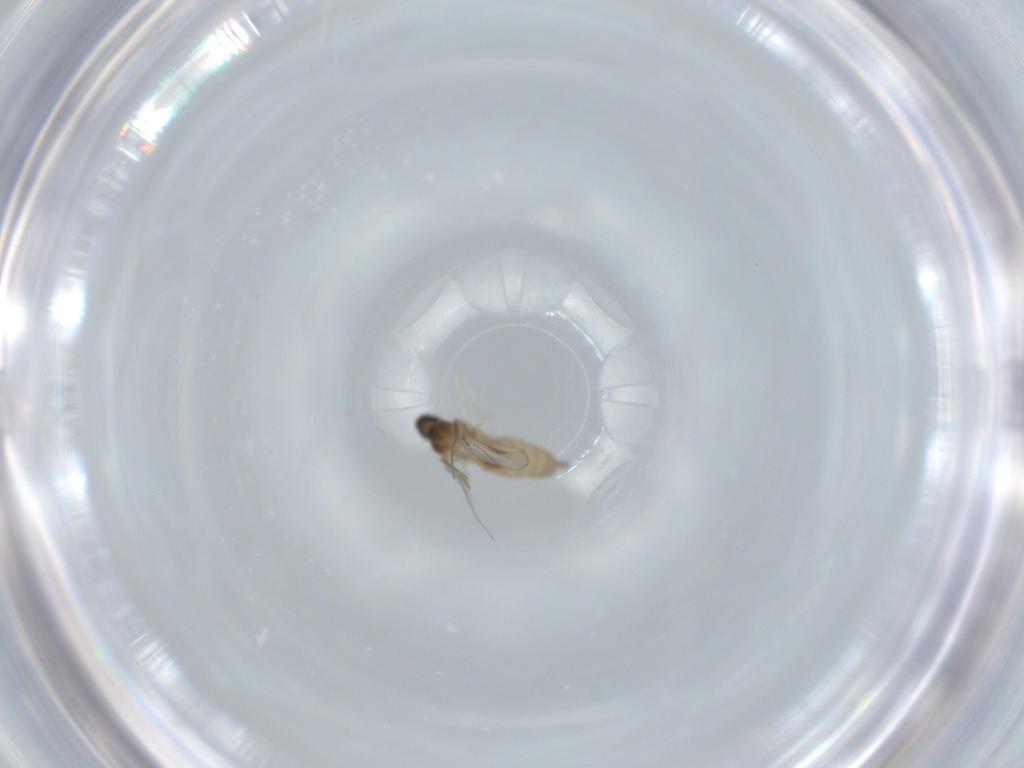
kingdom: Animalia
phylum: Arthropoda
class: Insecta
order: Diptera
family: Cecidomyiidae
